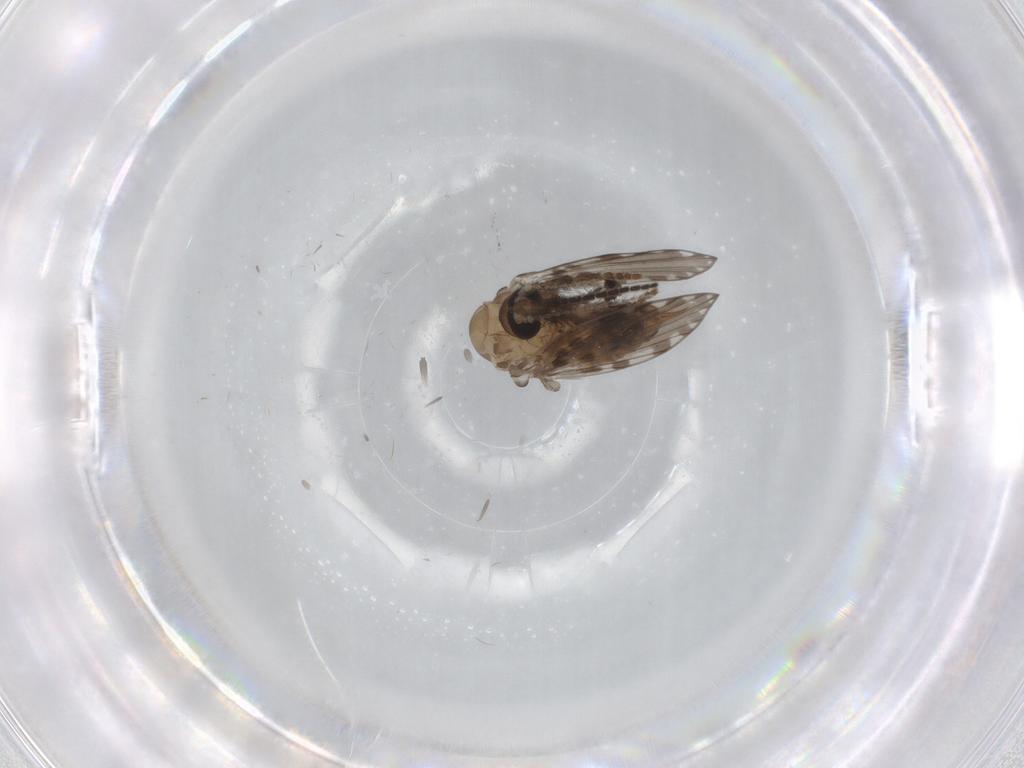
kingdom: Animalia
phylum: Arthropoda
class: Insecta
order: Diptera
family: Psychodidae
